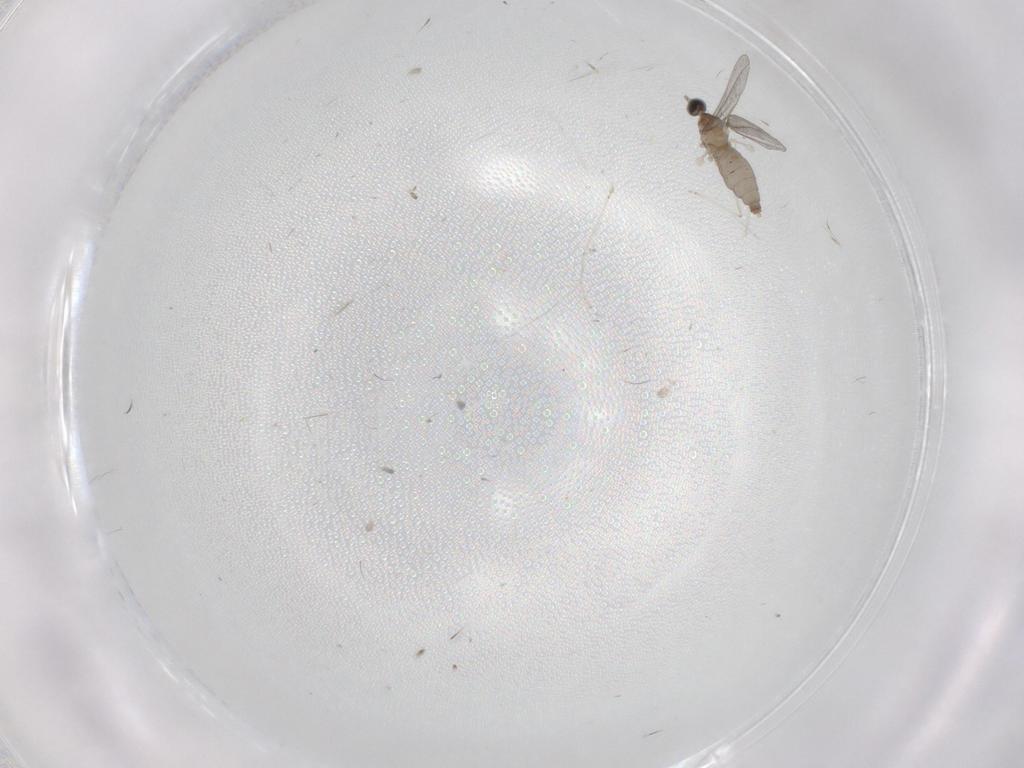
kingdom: Animalia
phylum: Arthropoda
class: Insecta
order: Diptera
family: Cecidomyiidae
